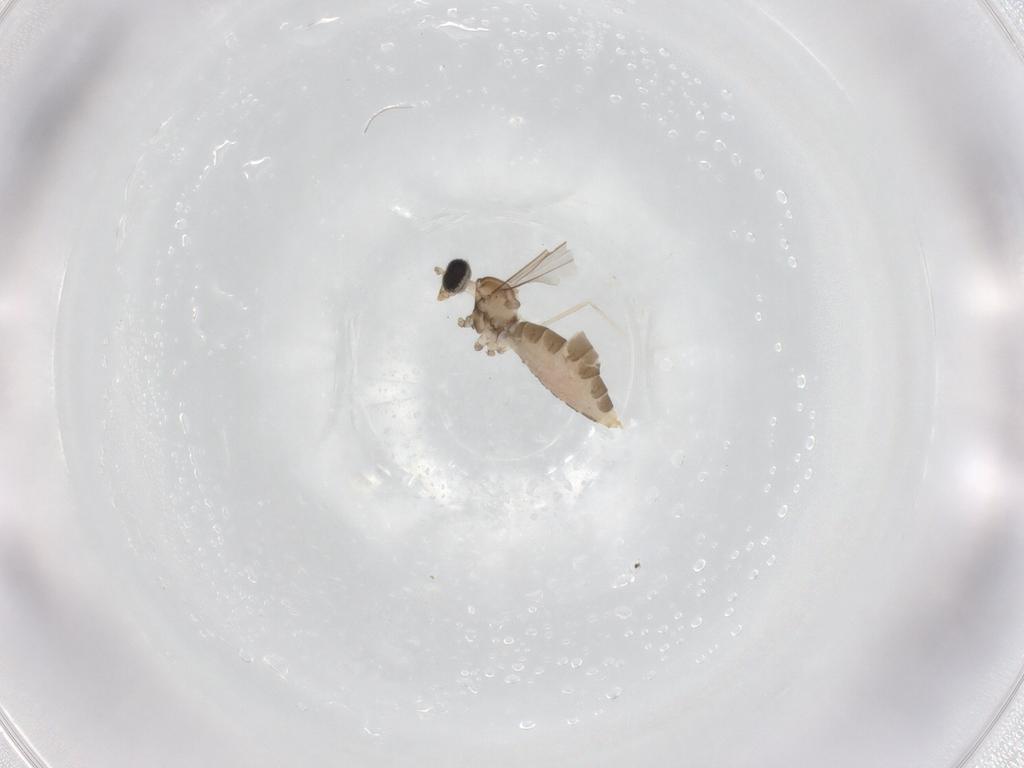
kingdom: Animalia
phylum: Arthropoda
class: Insecta
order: Diptera
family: Cecidomyiidae
